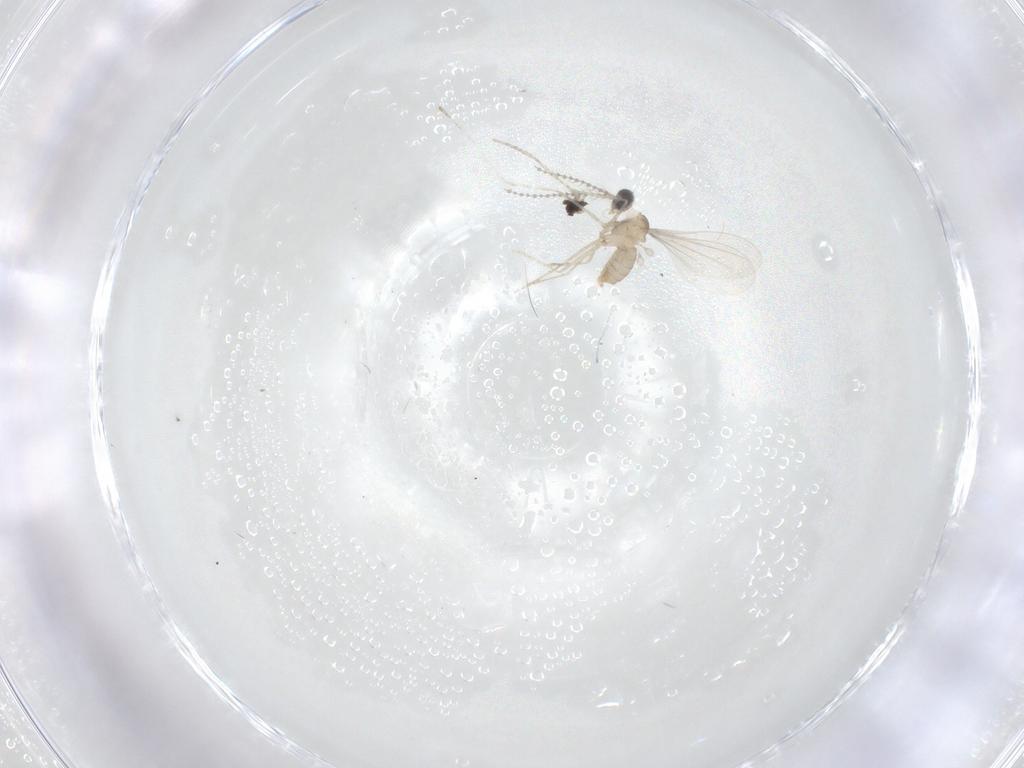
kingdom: Animalia
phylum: Arthropoda
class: Insecta
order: Diptera
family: Cecidomyiidae
